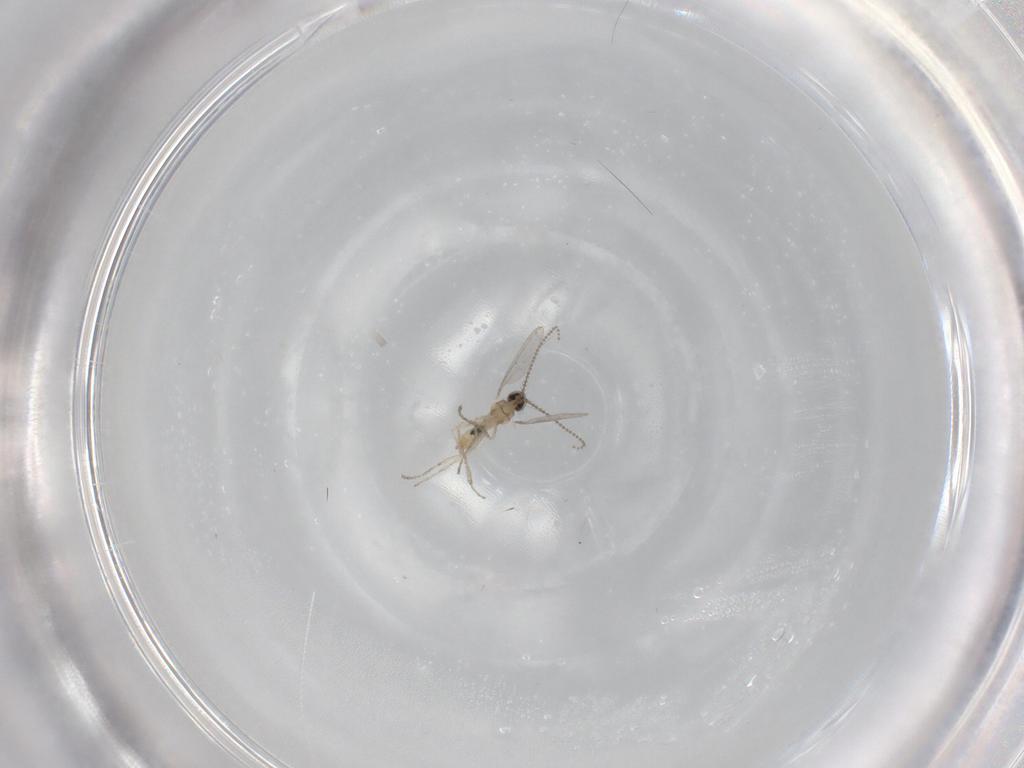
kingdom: Animalia
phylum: Arthropoda
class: Insecta
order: Diptera
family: Cecidomyiidae
